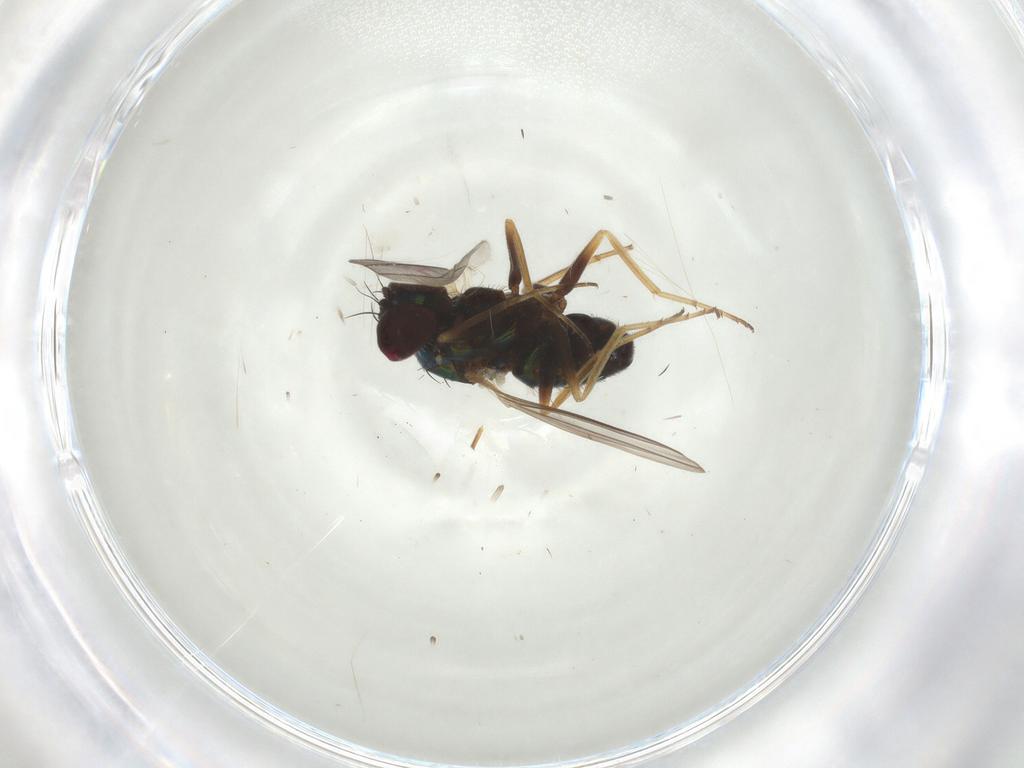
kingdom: Animalia
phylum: Arthropoda
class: Insecta
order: Diptera
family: Dolichopodidae
